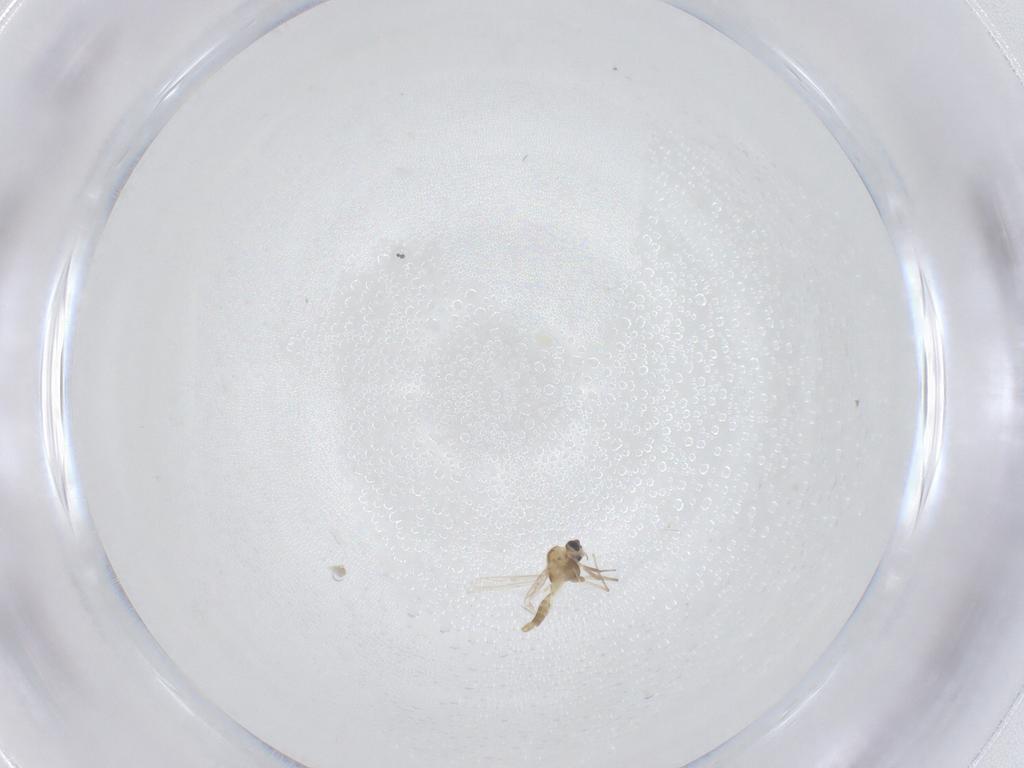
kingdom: Animalia
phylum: Arthropoda
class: Insecta
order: Diptera
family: Chironomidae
